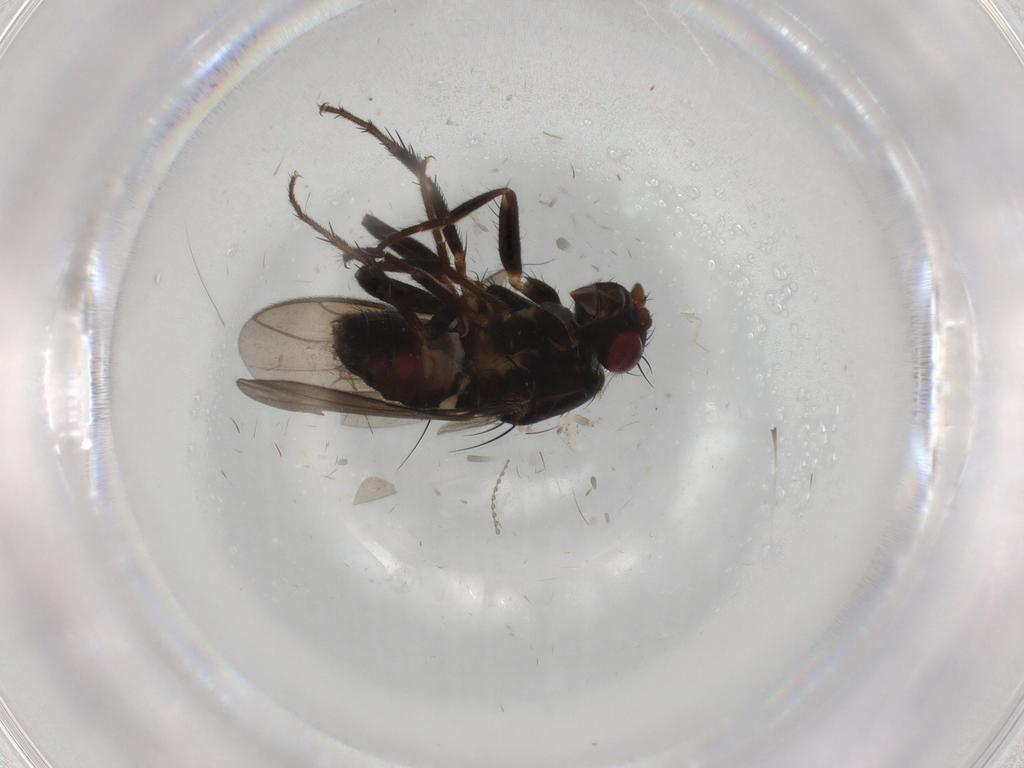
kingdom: Animalia
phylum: Arthropoda
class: Insecta
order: Diptera
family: Sphaeroceridae
